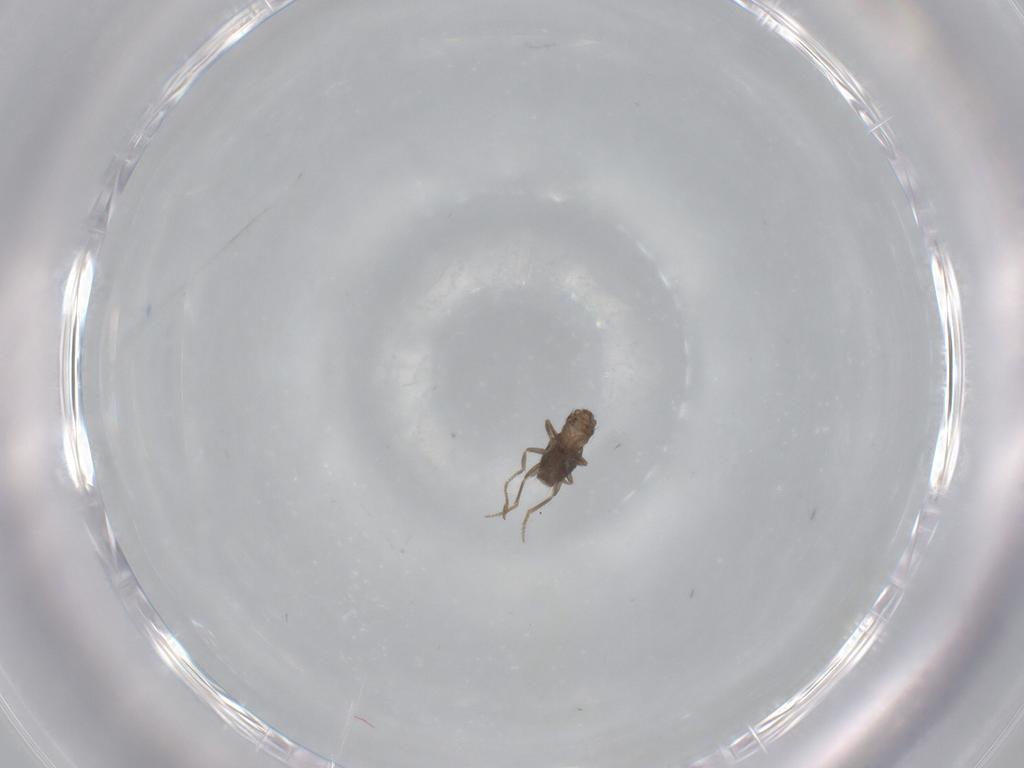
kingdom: Animalia
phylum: Arthropoda
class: Insecta
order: Diptera
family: Phoridae
